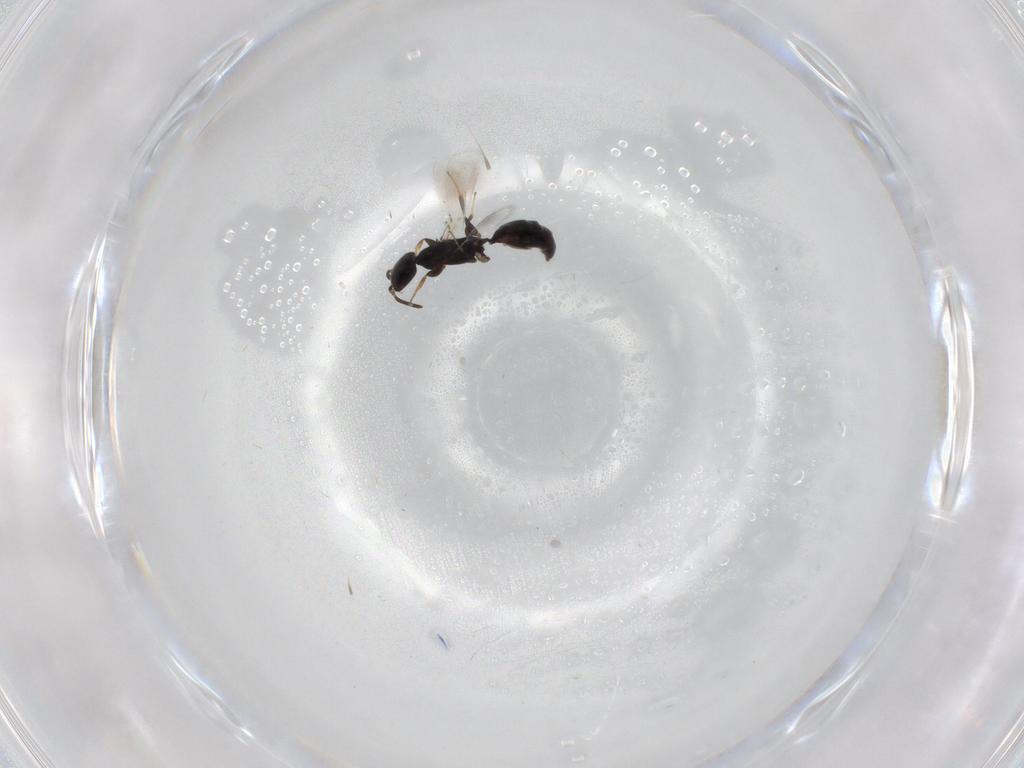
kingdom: Animalia
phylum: Arthropoda
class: Insecta
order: Hymenoptera
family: Bethylidae
